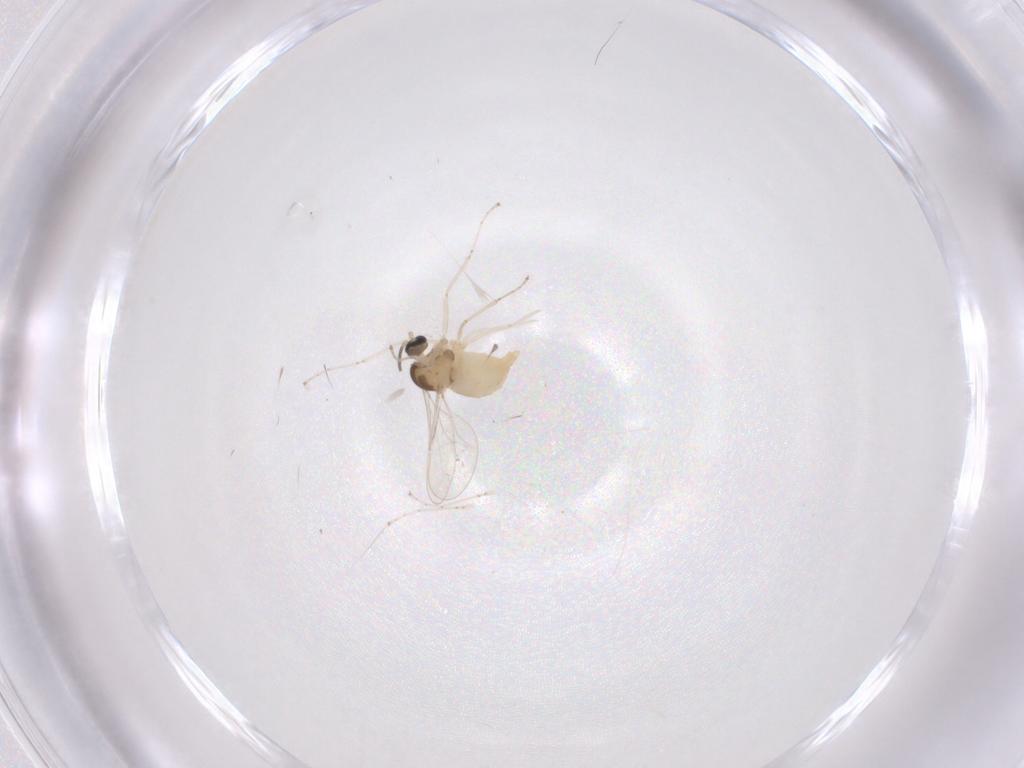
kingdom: Animalia
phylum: Arthropoda
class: Insecta
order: Diptera
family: Cecidomyiidae
